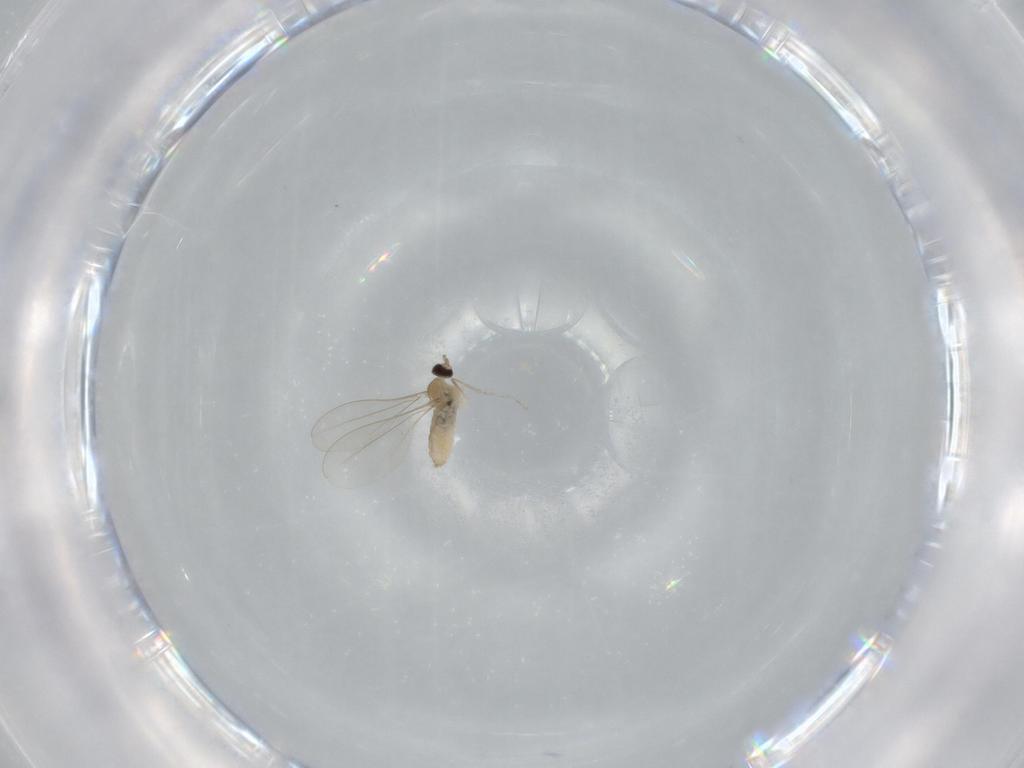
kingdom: Animalia
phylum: Arthropoda
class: Insecta
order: Diptera
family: Cecidomyiidae
